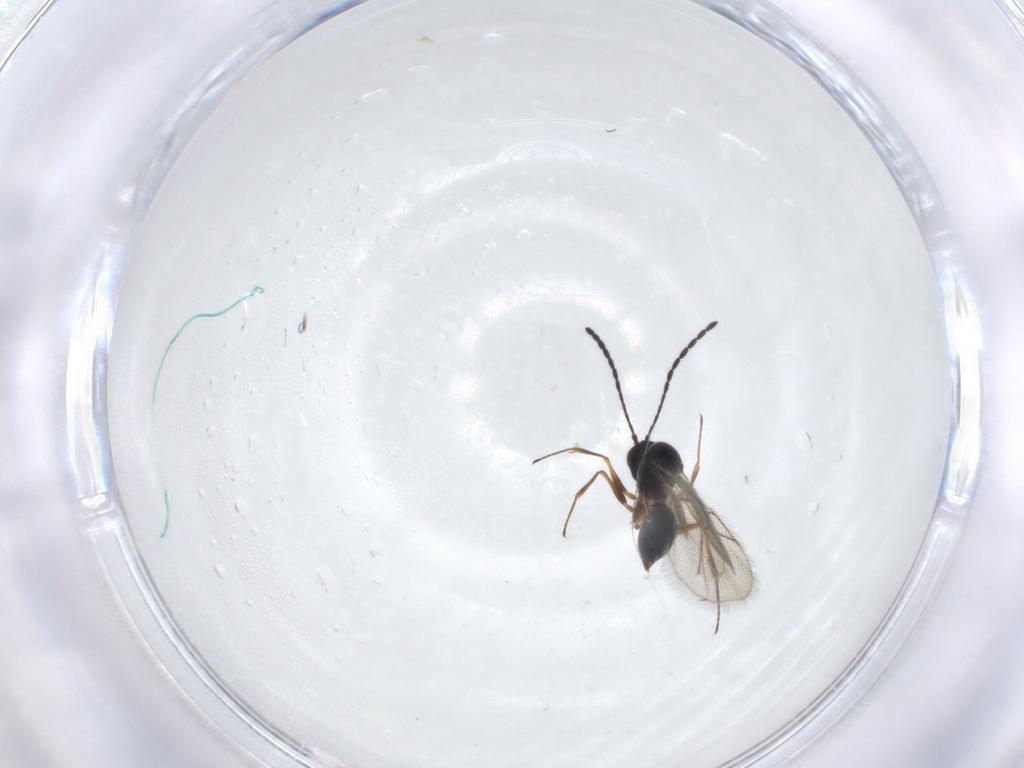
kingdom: Animalia
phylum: Arthropoda
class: Insecta
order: Hymenoptera
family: Figitidae
